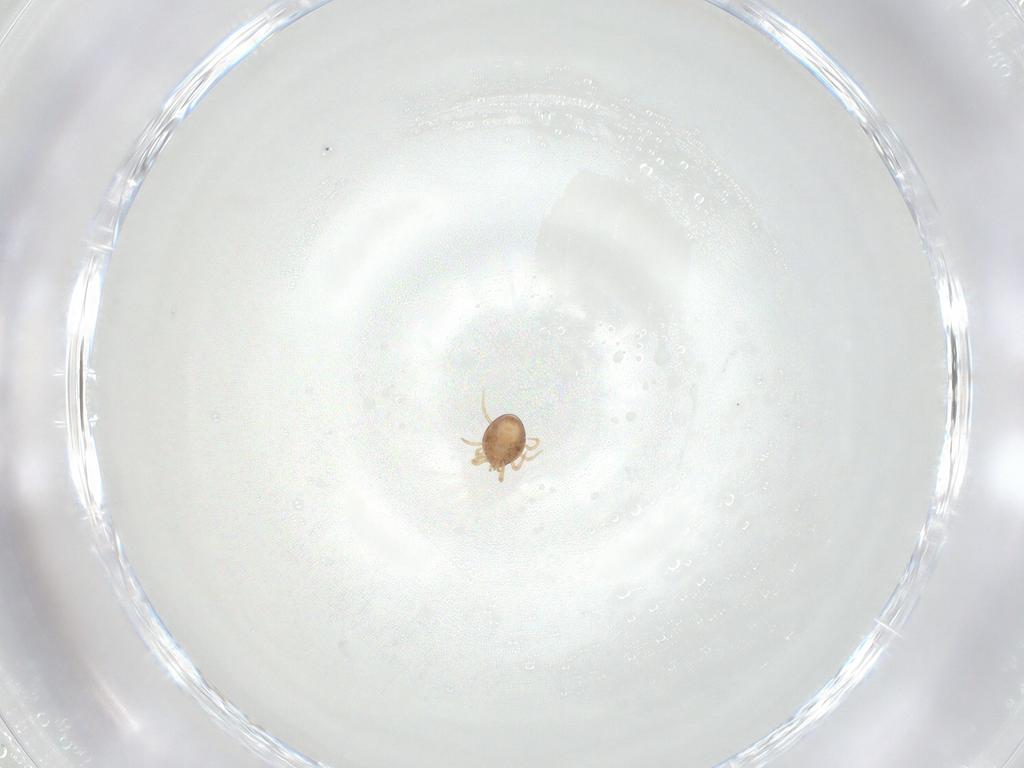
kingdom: Animalia
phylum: Arthropoda
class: Arachnida
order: Mesostigmata
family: Phytoseiidae
